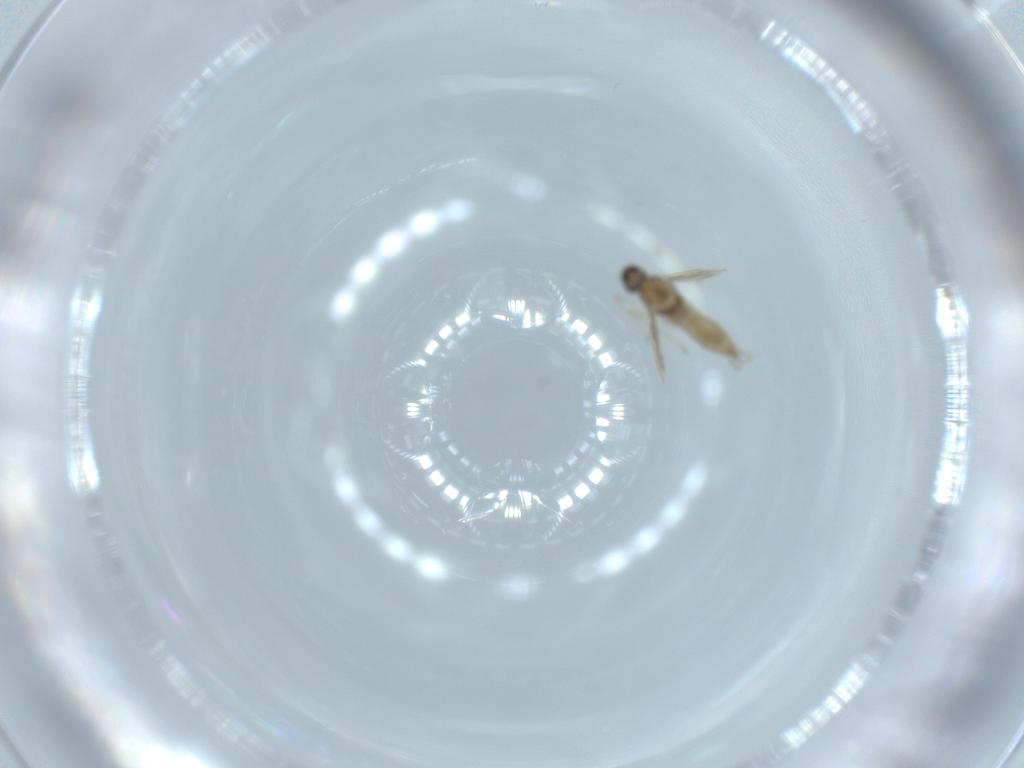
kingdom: Animalia
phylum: Arthropoda
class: Insecta
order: Diptera
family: Cecidomyiidae
